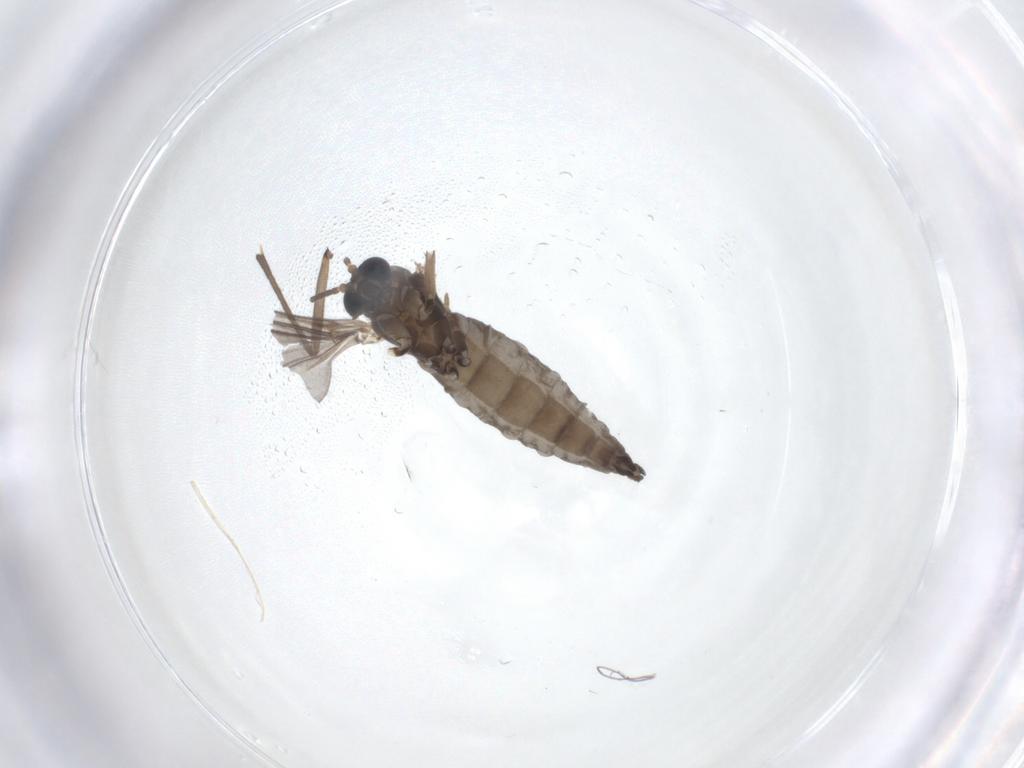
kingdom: Animalia
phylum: Arthropoda
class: Insecta
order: Diptera
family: Sciaridae
